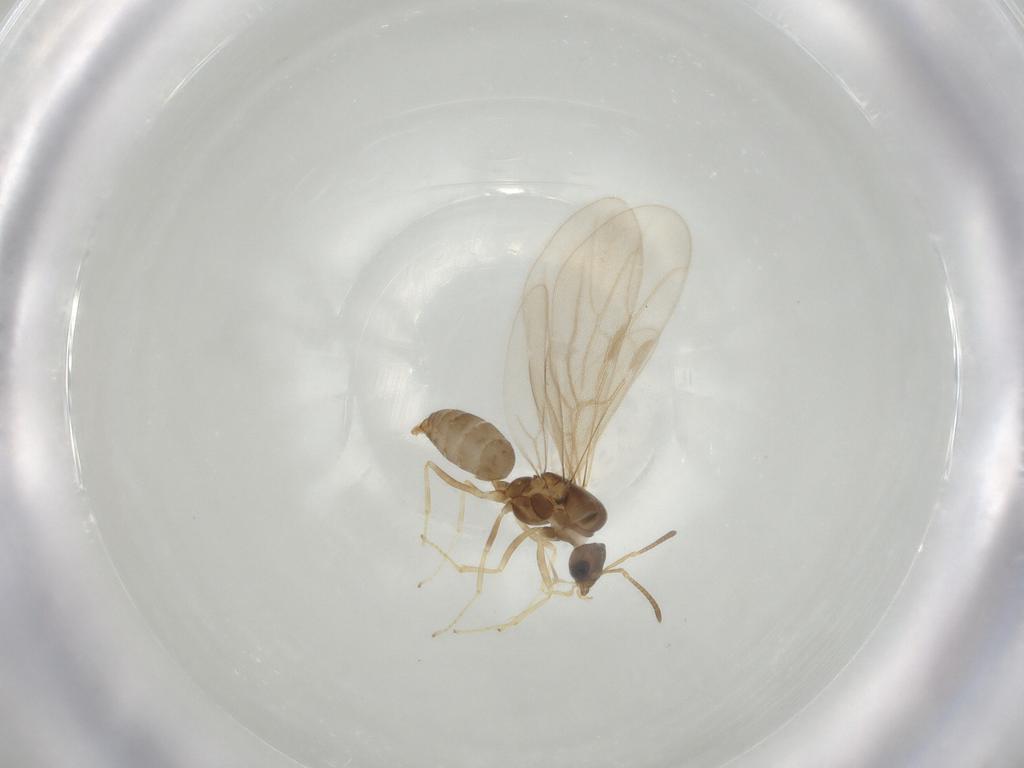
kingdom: Animalia
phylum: Arthropoda
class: Insecta
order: Hymenoptera
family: Formicidae
